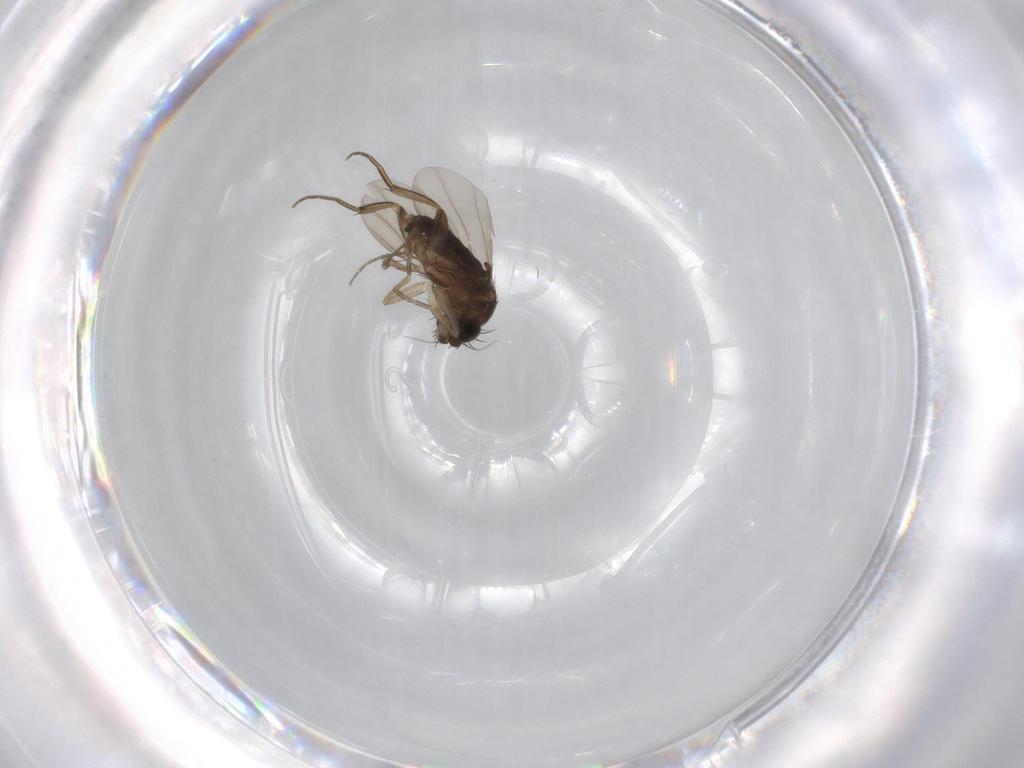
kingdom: Animalia
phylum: Arthropoda
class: Insecta
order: Diptera
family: Phoridae
